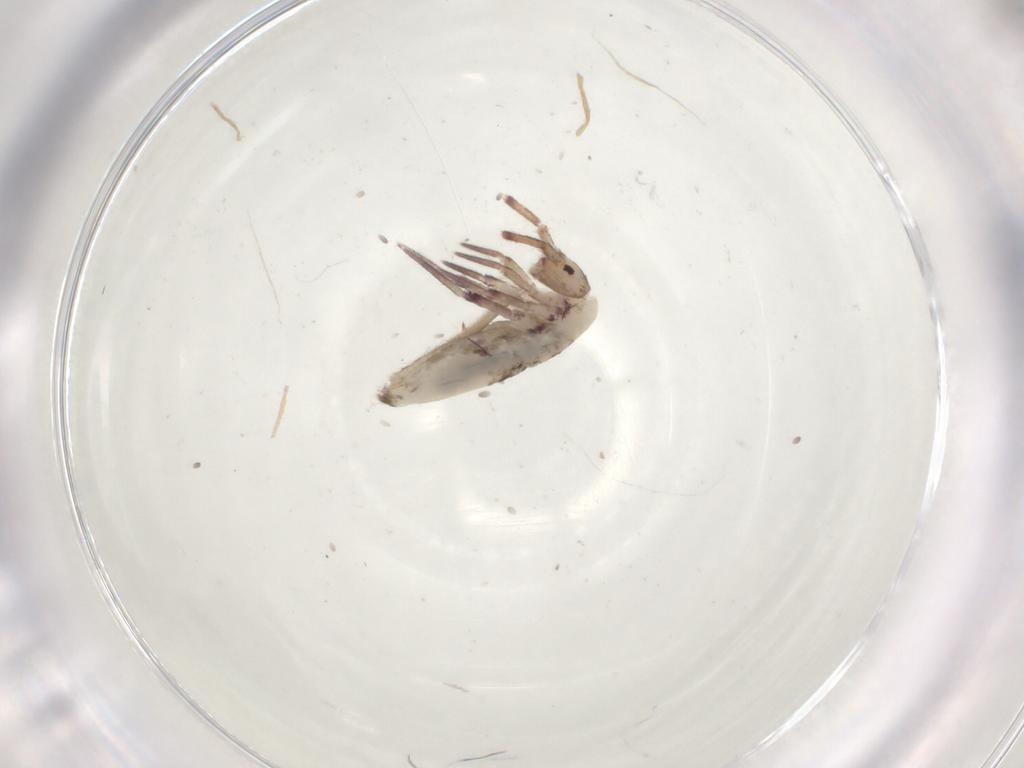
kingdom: Animalia
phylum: Arthropoda
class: Collembola
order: Entomobryomorpha
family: Entomobryidae
